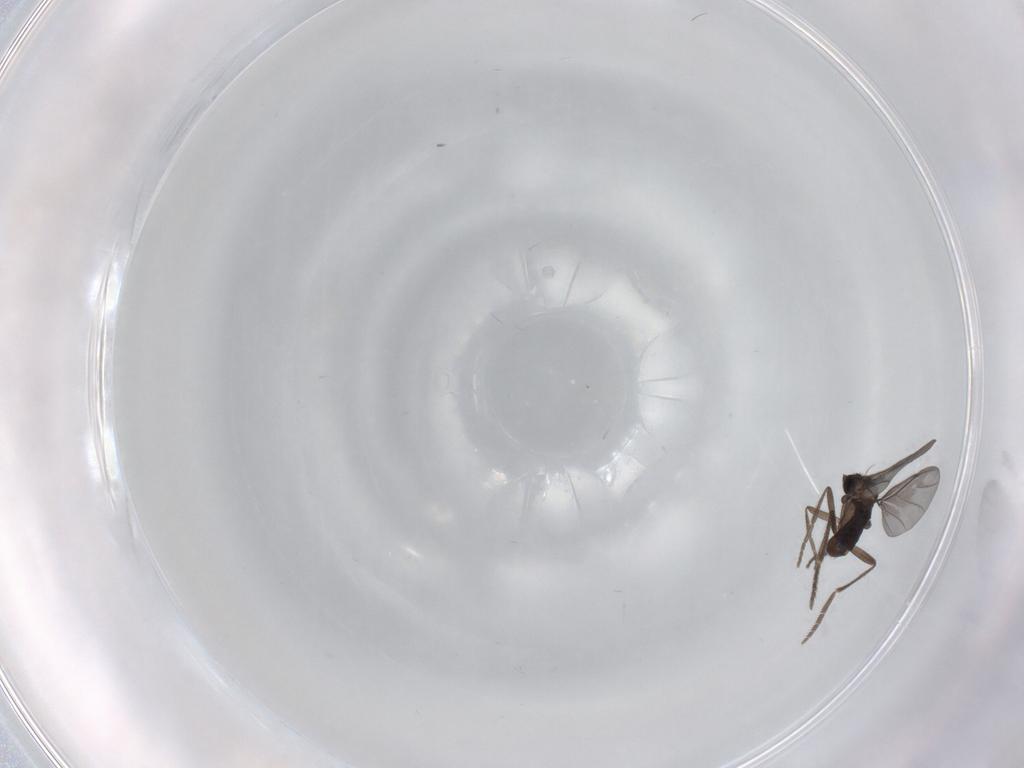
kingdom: Animalia
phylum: Arthropoda
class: Insecta
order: Diptera
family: Phoridae
